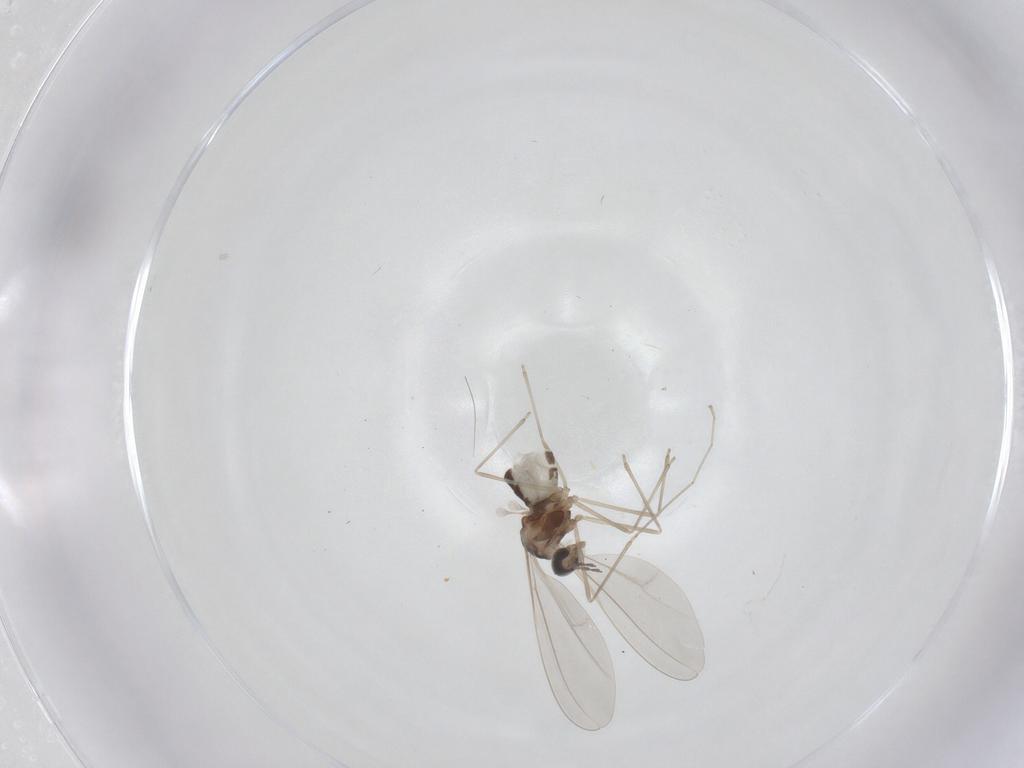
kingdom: Animalia
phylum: Arthropoda
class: Insecta
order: Diptera
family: Cecidomyiidae
